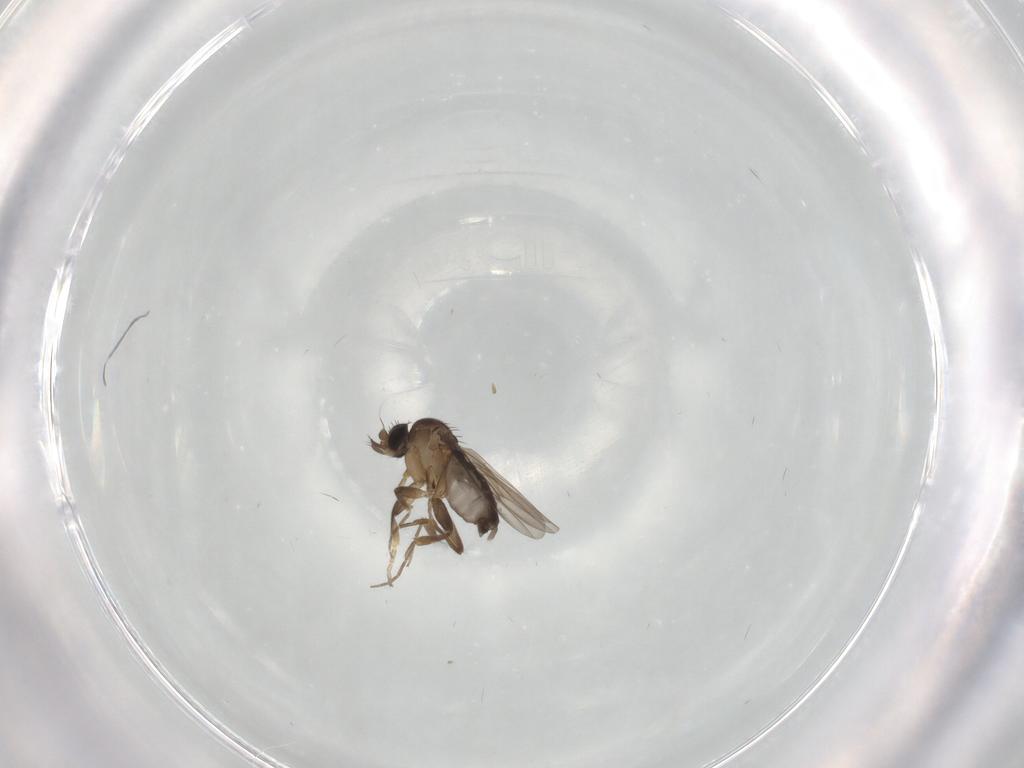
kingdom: Animalia
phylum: Arthropoda
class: Insecta
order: Diptera
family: Phoridae
